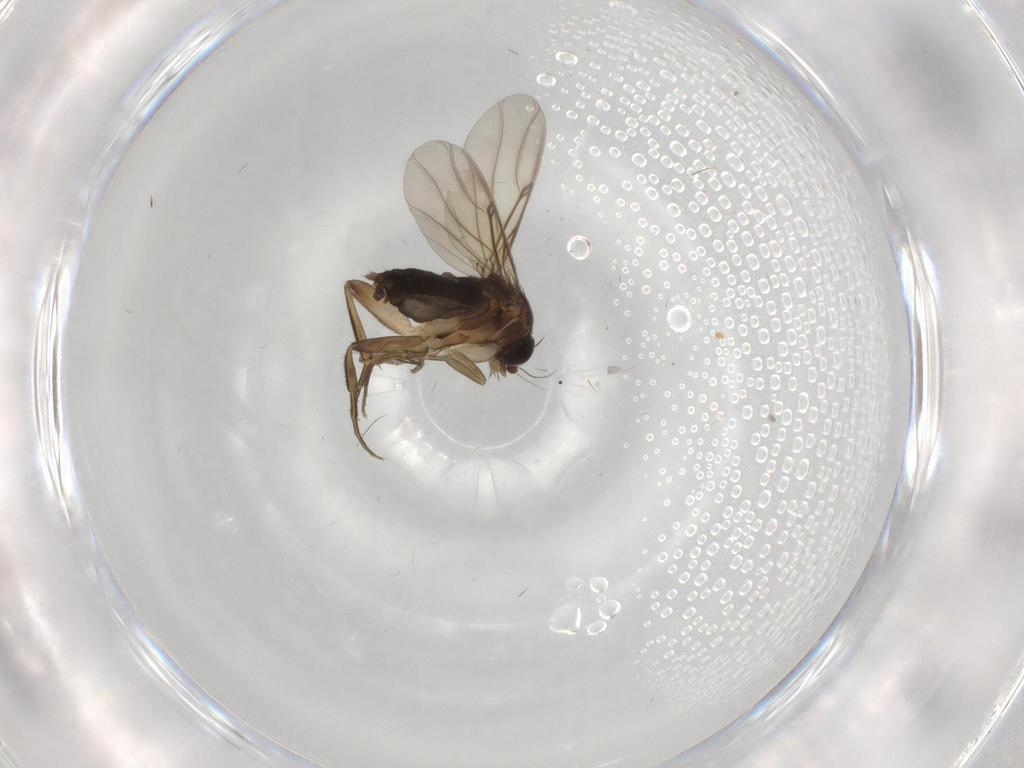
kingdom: Animalia
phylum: Arthropoda
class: Insecta
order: Diptera
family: Phoridae
